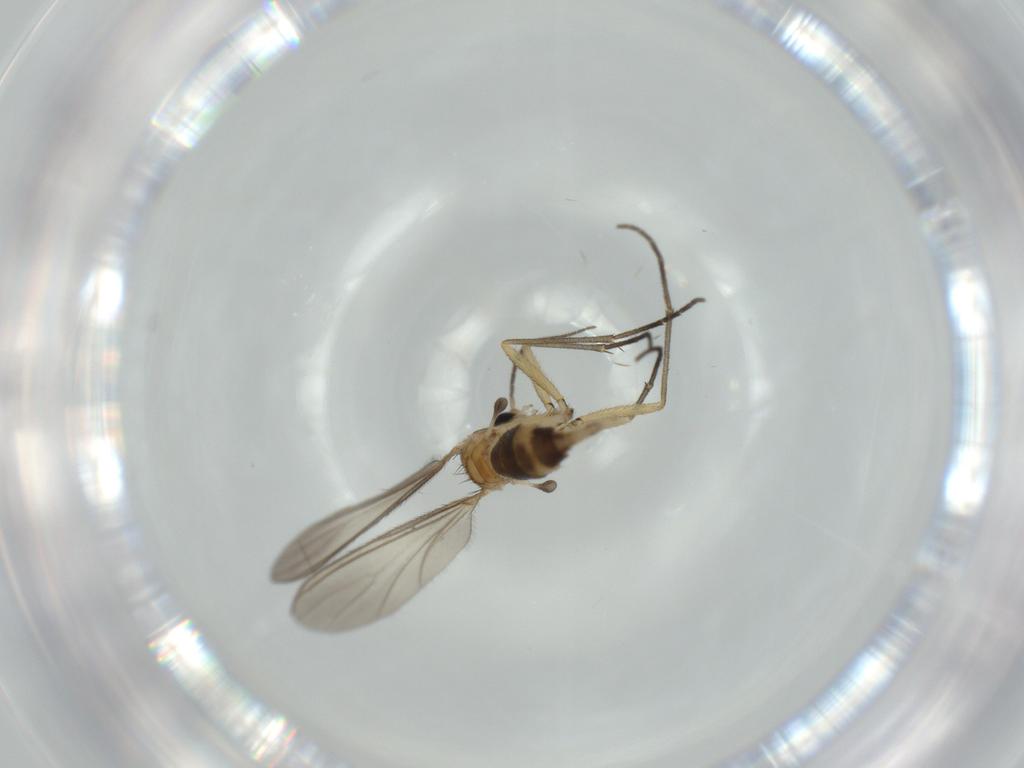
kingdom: Animalia
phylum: Arthropoda
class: Insecta
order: Diptera
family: Sciaridae
